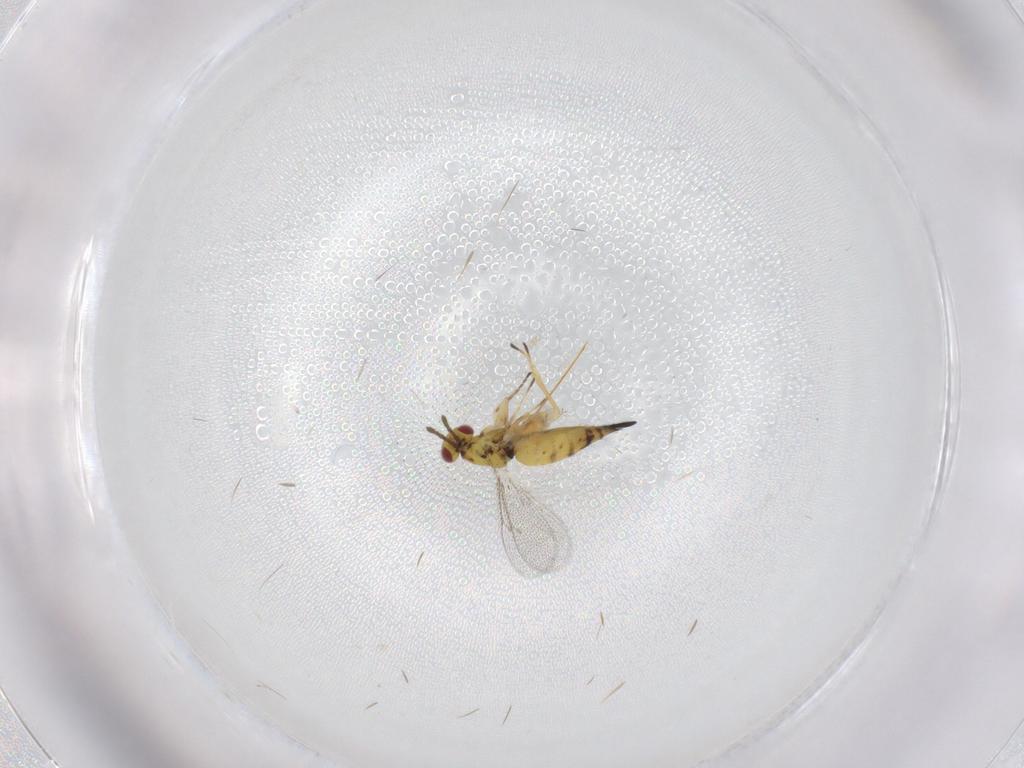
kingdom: Animalia
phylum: Arthropoda
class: Insecta
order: Hymenoptera
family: Eulophidae
